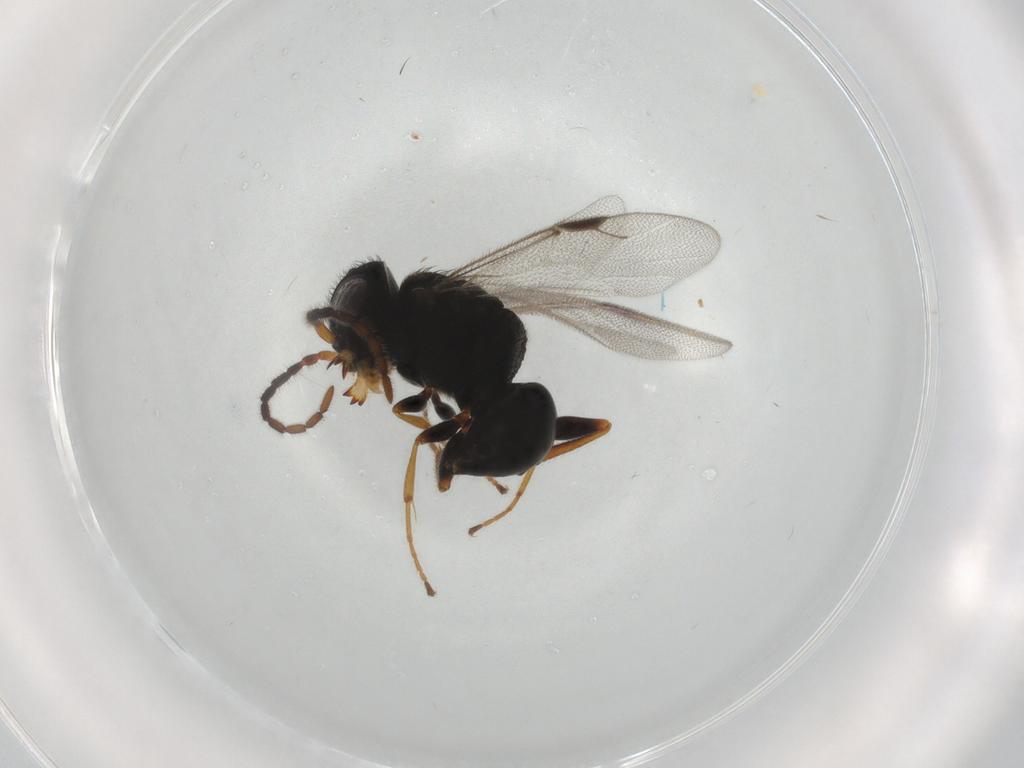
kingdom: Animalia
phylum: Arthropoda
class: Insecta
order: Hymenoptera
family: Dryinidae
